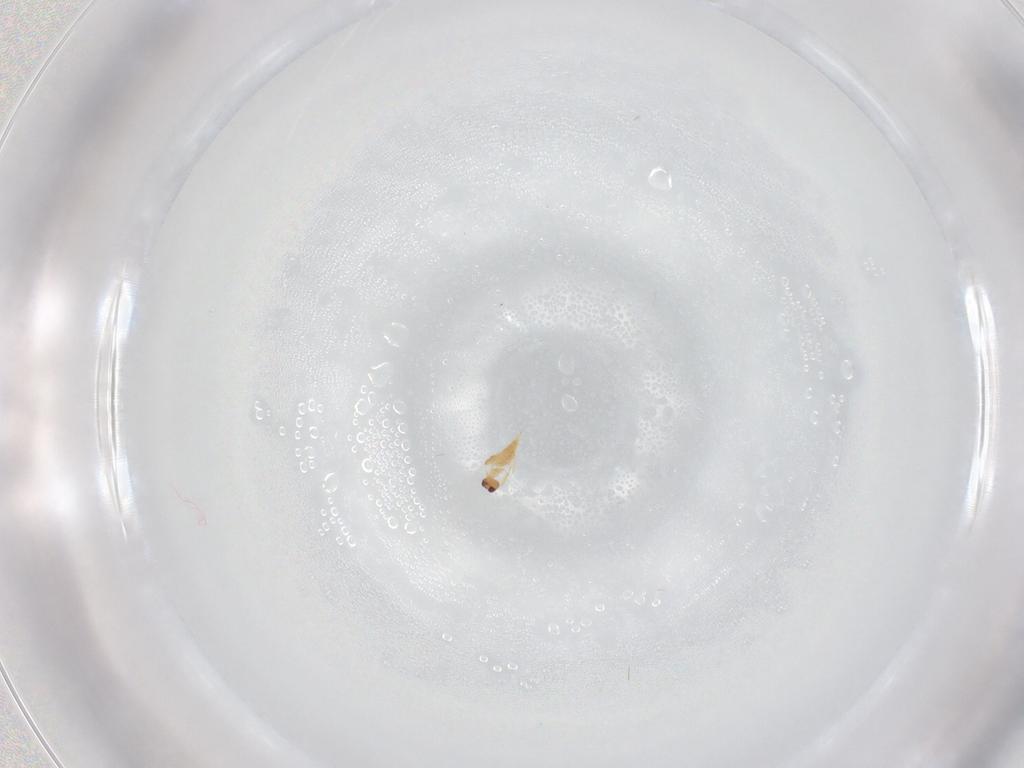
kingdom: Animalia
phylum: Arthropoda
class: Insecta
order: Hymenoptera
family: Mymaridae
